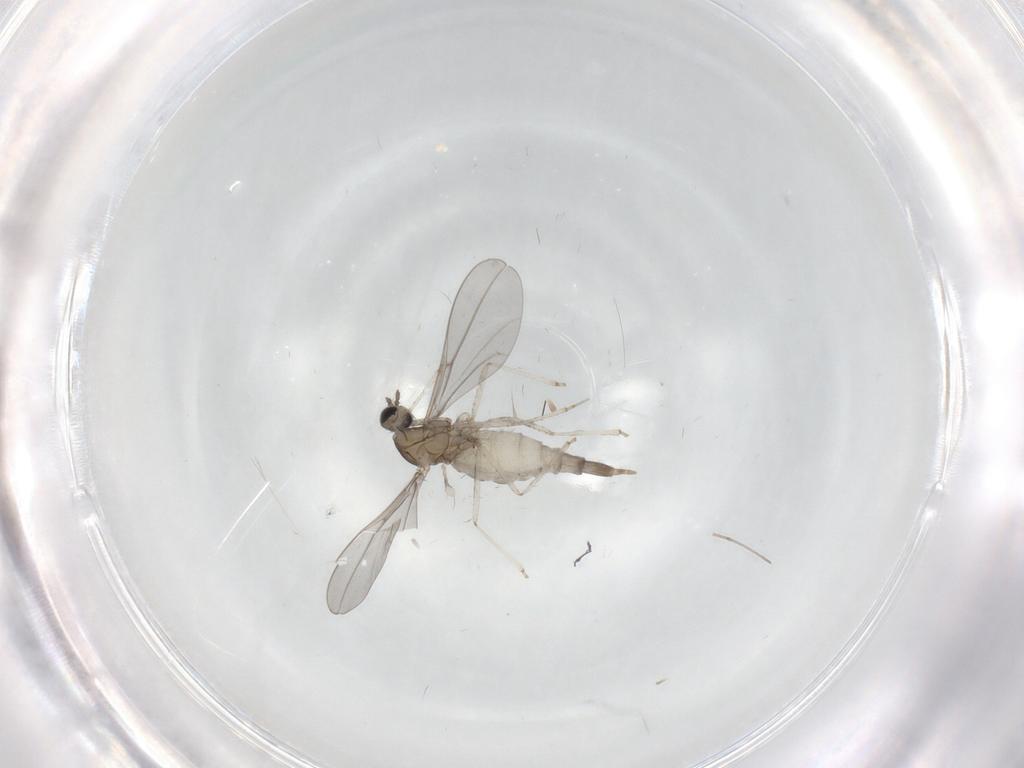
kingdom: Animalia
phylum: Arthropoda
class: Insecta
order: Diptera
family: Cecidomyiidae
